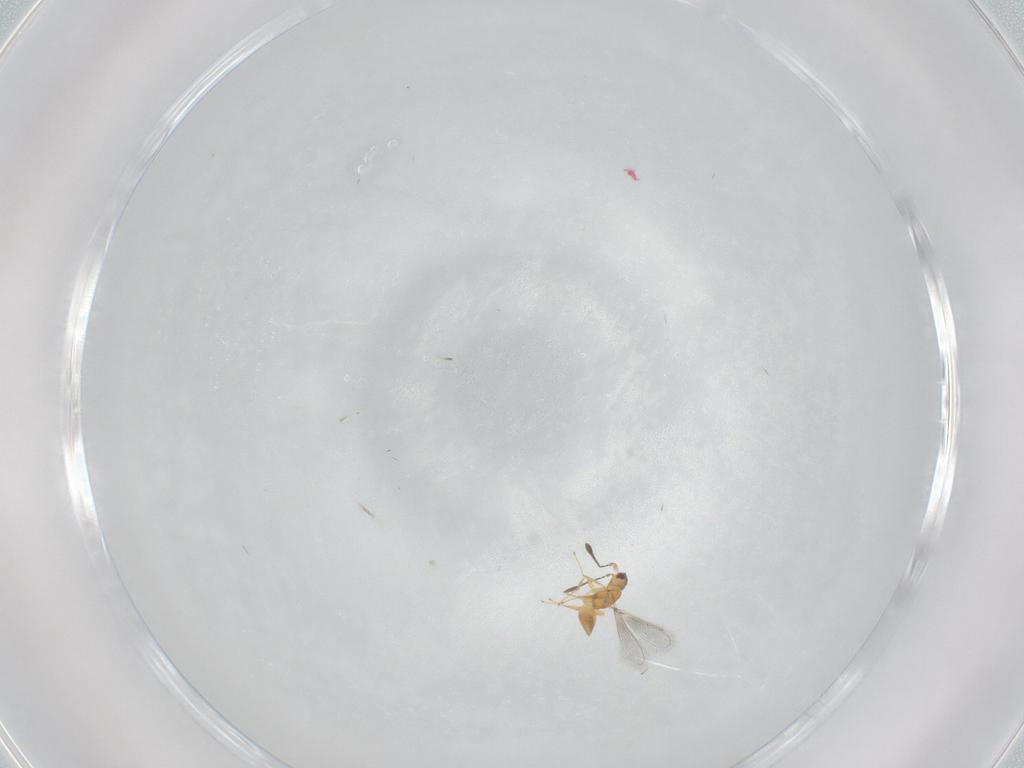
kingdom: Animalia
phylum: Arthropoda
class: Insecta
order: Hymenoptera
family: Mymaridae
